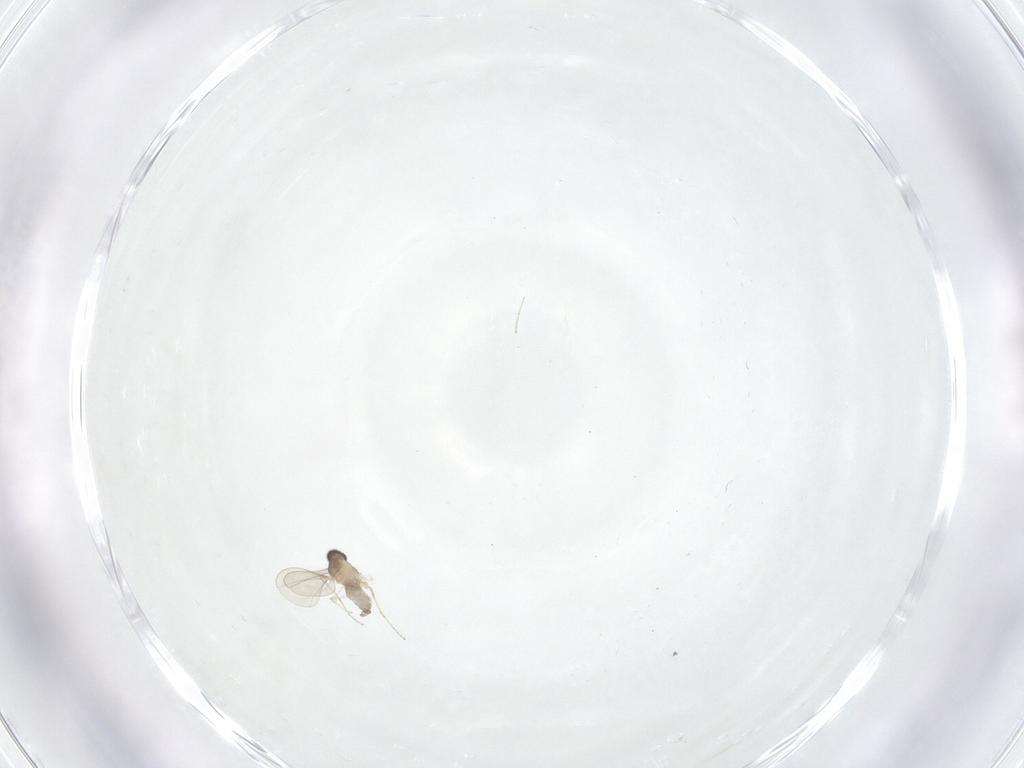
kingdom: Animalia
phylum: Arthropoda
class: Insecta
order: Diptera
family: Cecidomyiidae
